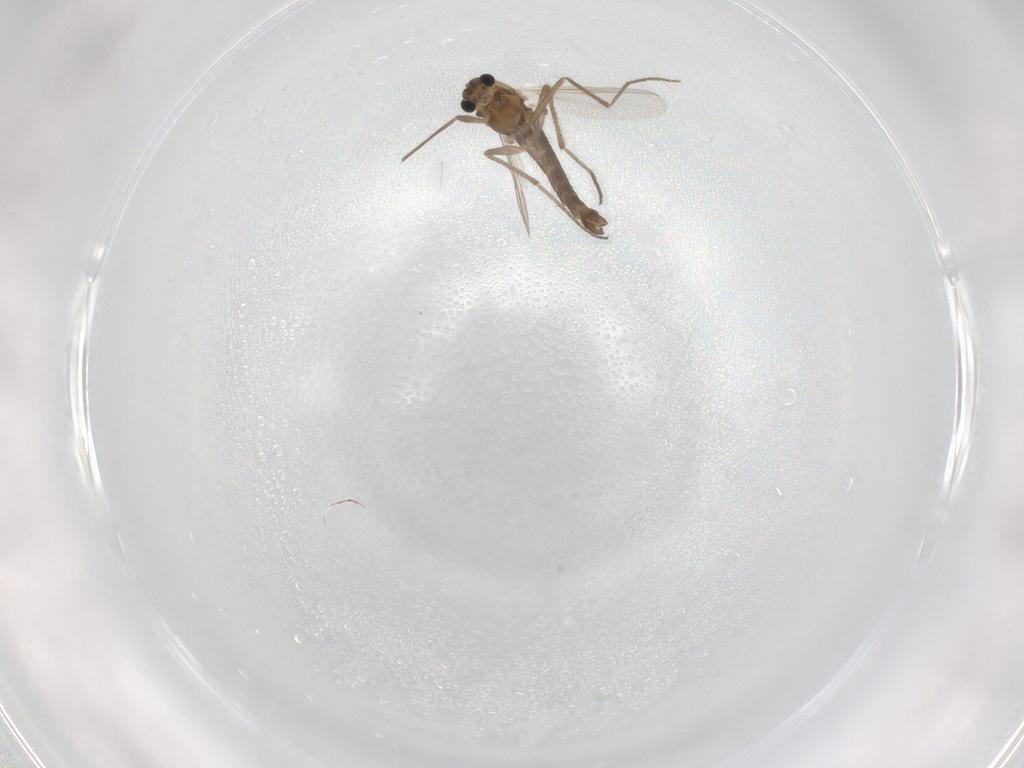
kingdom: Animalia
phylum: Arthropoda
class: Insecta
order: Diptera
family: Chironomidae
